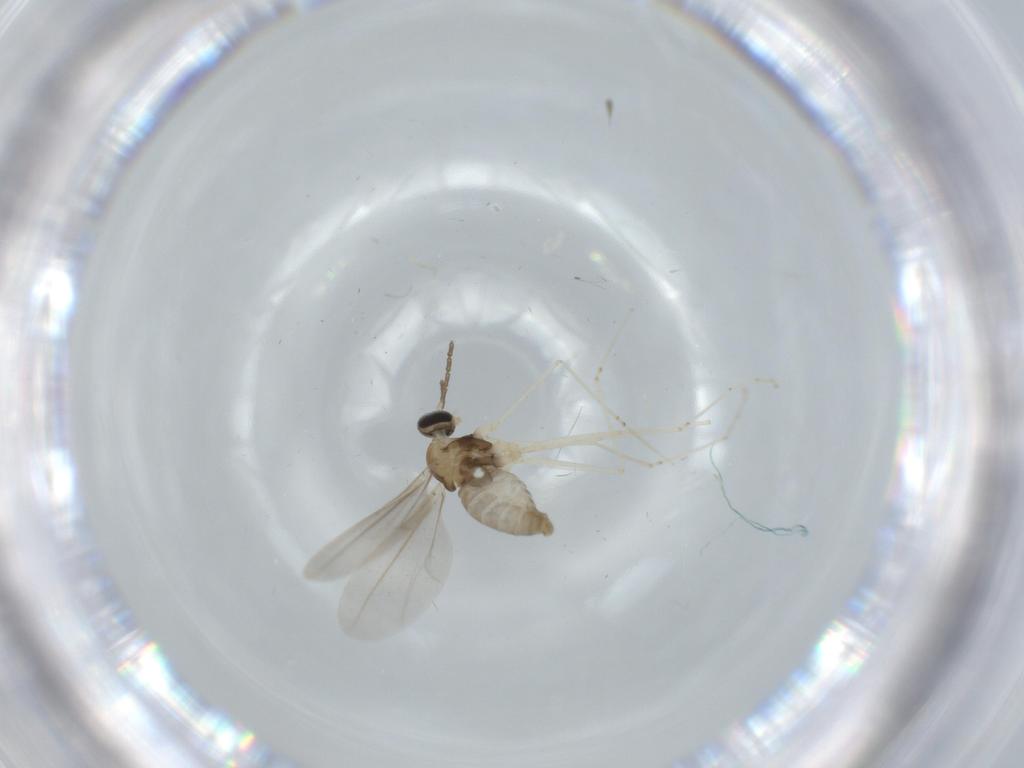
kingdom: Animalia
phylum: Arthropoda
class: Insecta
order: Diptera
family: Cecidomyiidae
